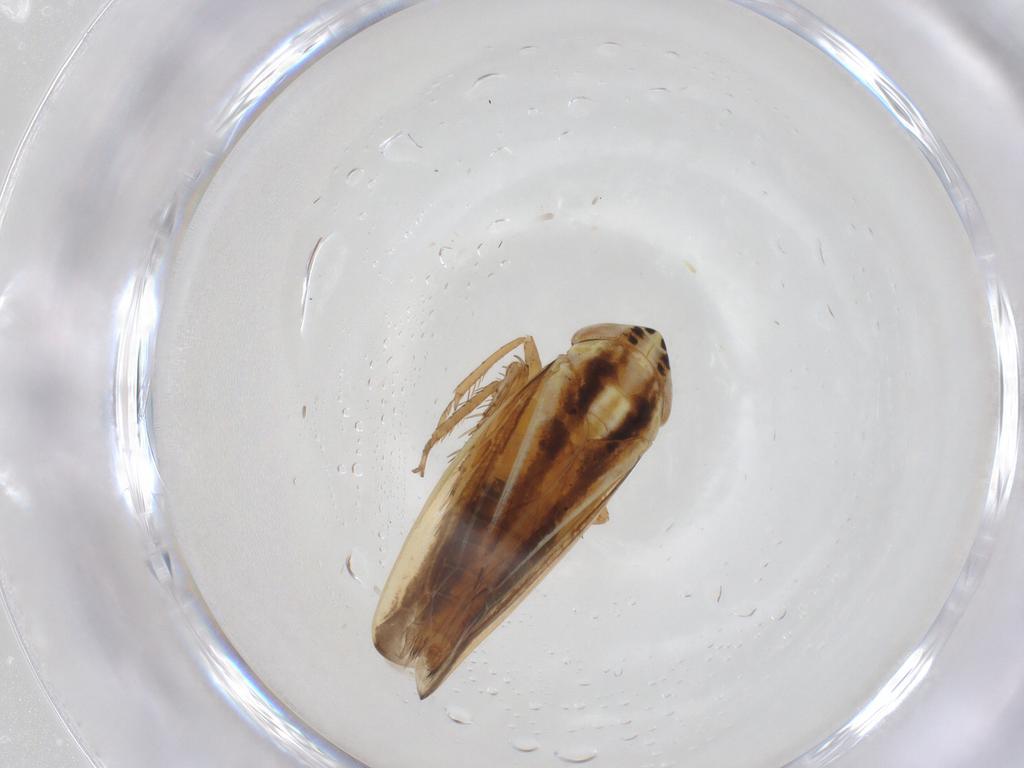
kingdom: Animalia
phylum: Arthropoda
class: Insecta
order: Hemiptera
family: Cicadellidae
